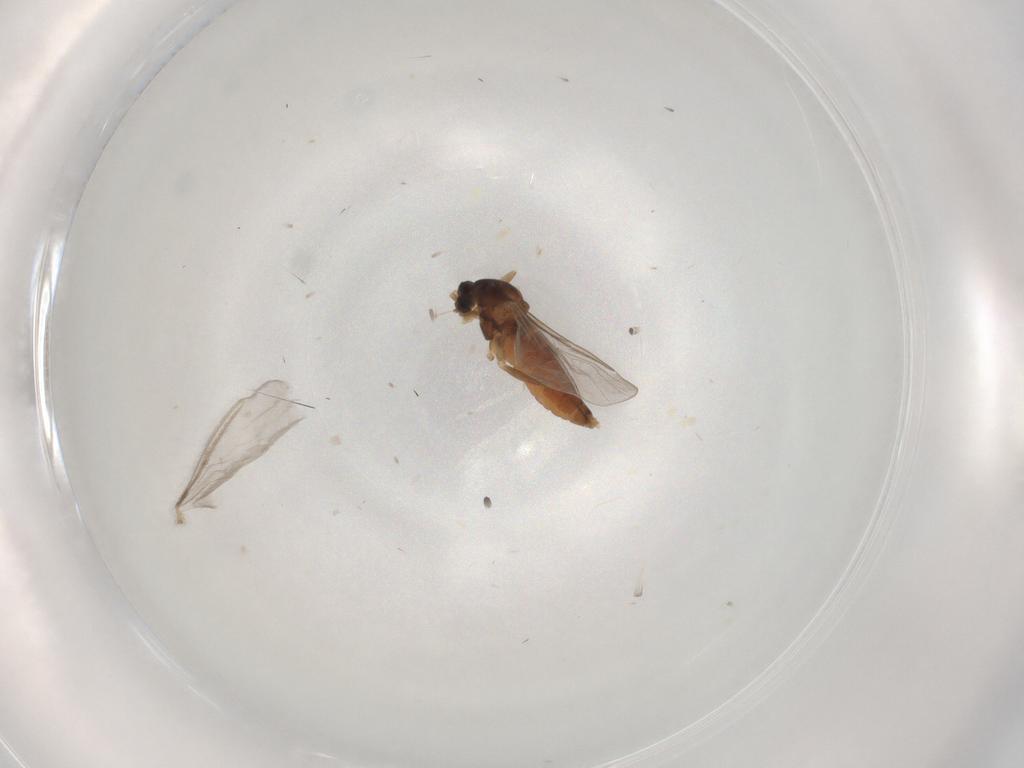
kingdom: Animalia
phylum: Arthropoda
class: Insecta
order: Diptera
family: Cecidomyiidae
